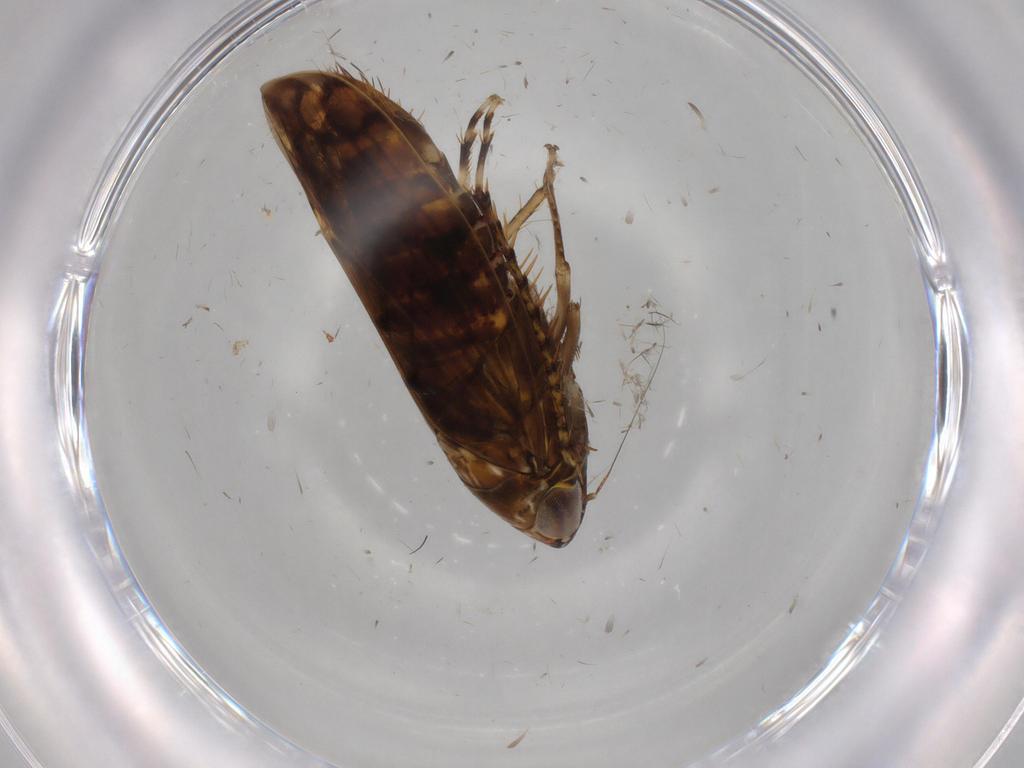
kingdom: Animalia
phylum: Arthropoda
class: Insecta
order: Hemiptera
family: Cicadellidae
